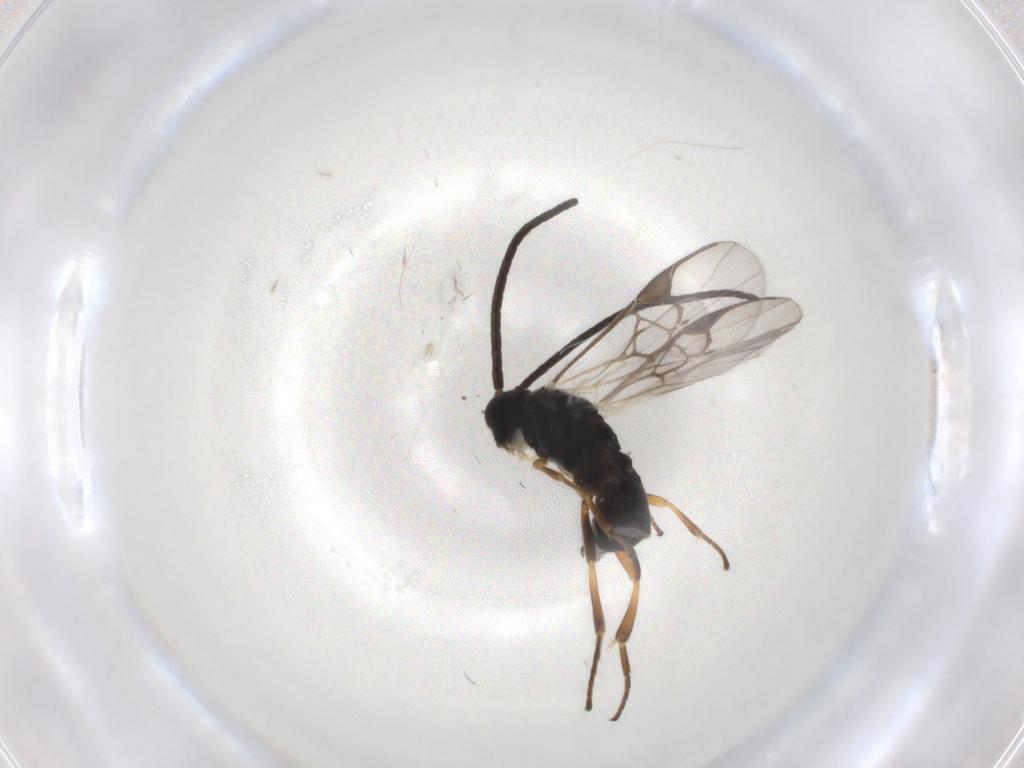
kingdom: Animalia
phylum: Arthropoda
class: Insecta
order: Hymenoptera
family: Braconidae
